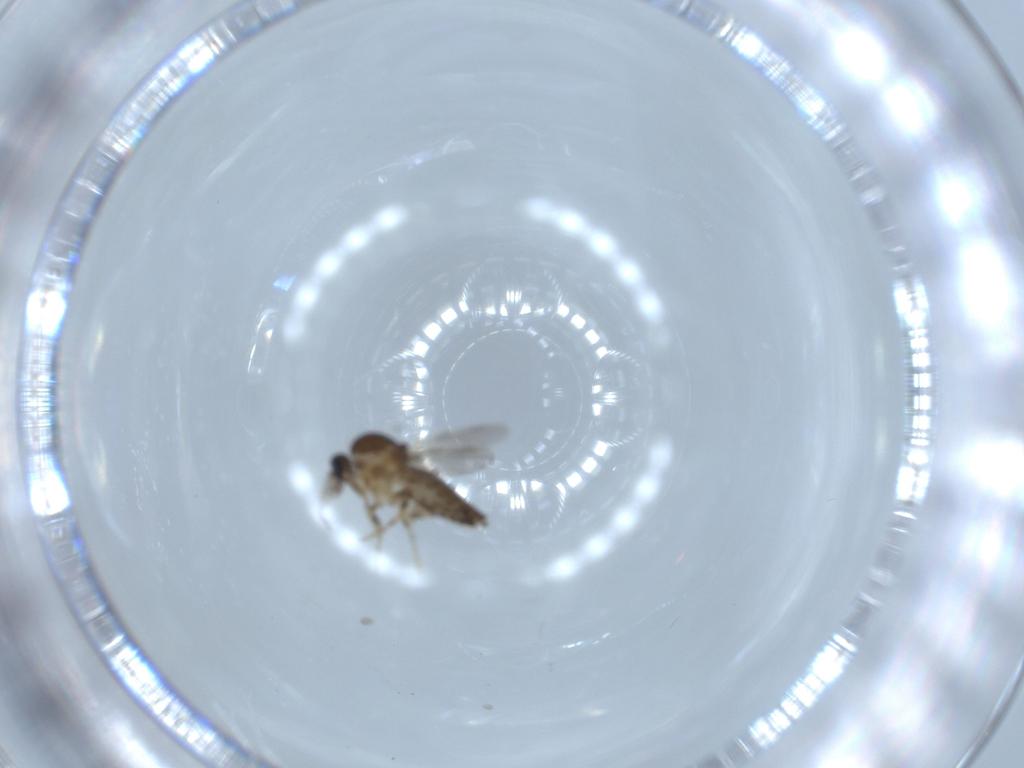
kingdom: Animalia
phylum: Arthropoda
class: Insecta
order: Diptera
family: Ceratopogonidae
